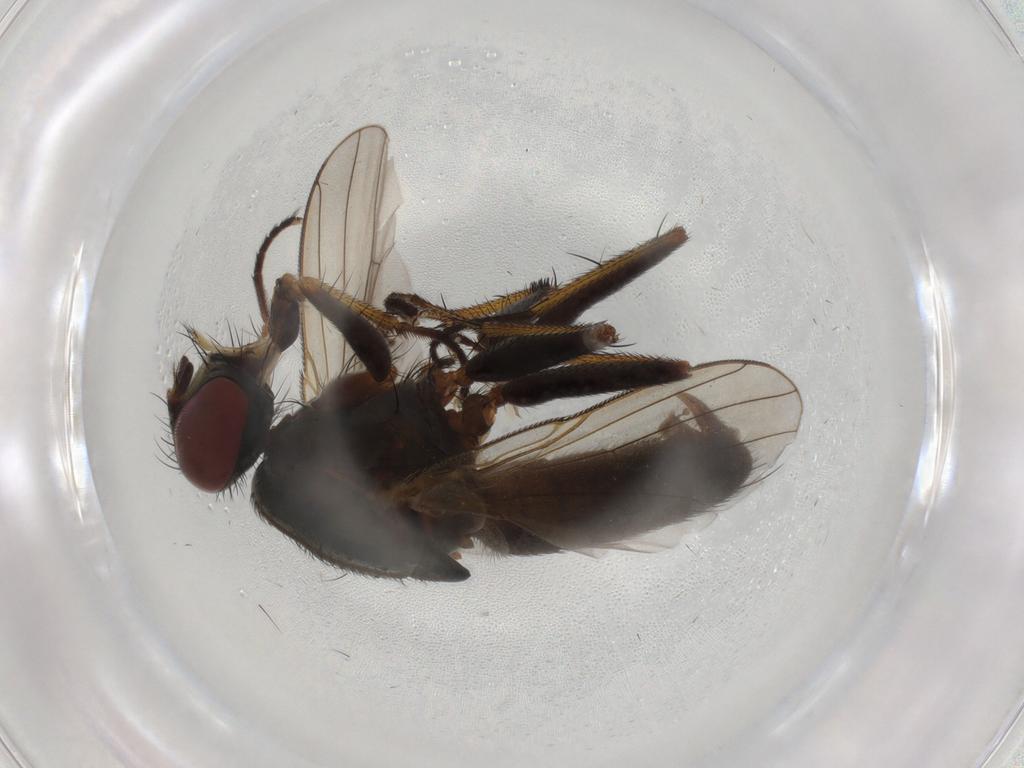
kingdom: Animalia
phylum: Arthropoda
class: Insecta
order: Diptera
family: Muscidae
